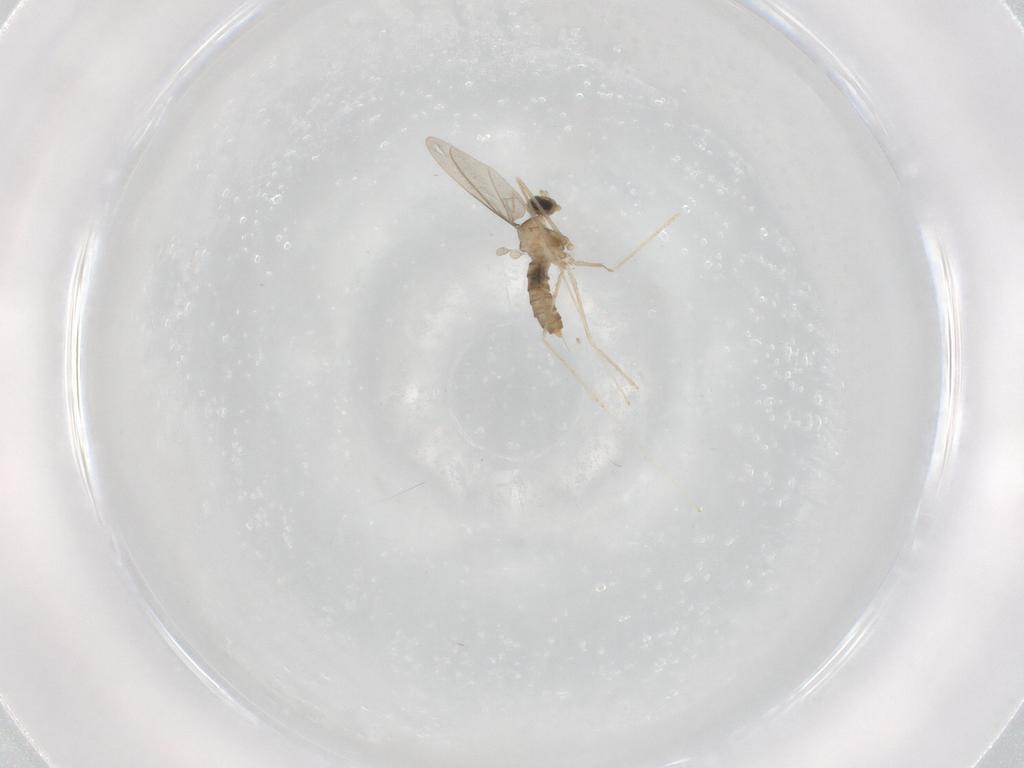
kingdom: Animalia
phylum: Arthropoda
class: Insecta
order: Diptera
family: Cecidomyiidae
